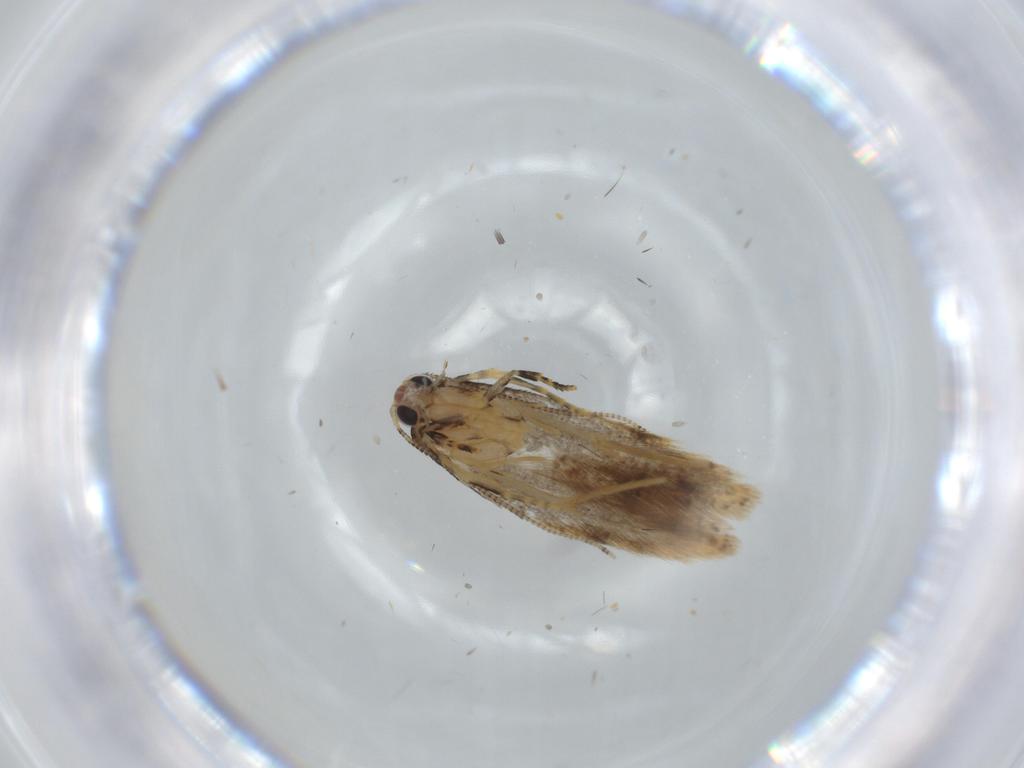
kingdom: Animalia
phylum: Arthropoda
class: Insecta
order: Lepidoptera
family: Tineidae
